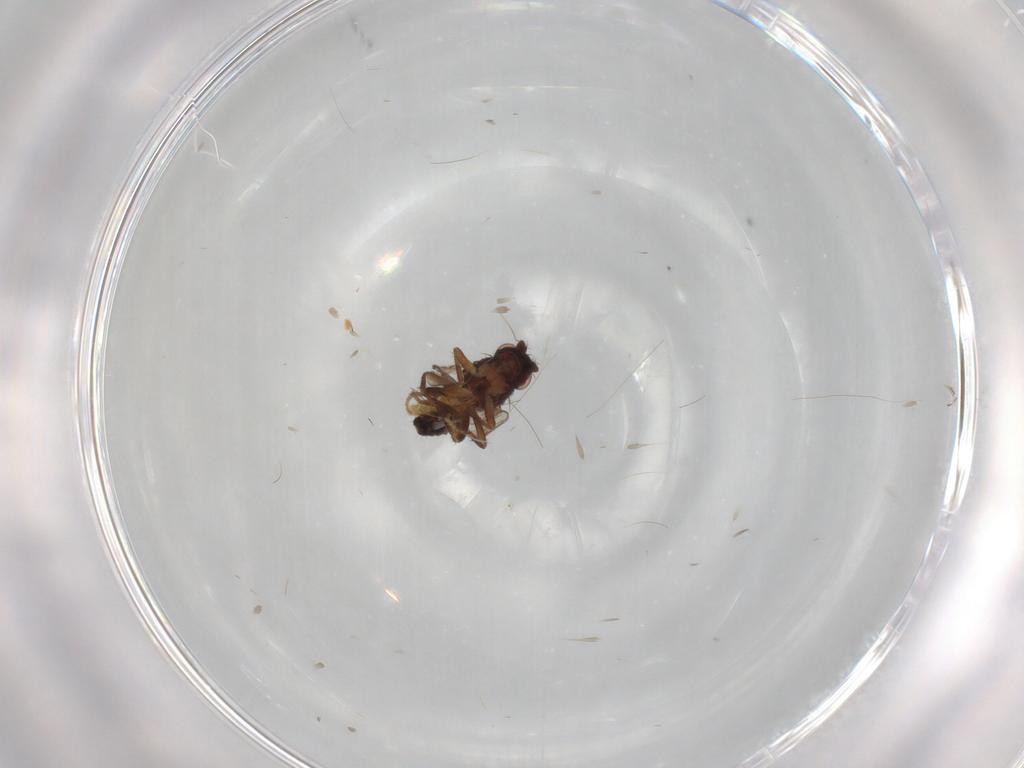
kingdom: Animalia
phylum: Arthropoda
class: Insecta
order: Diptera
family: Sphaeroceridae
